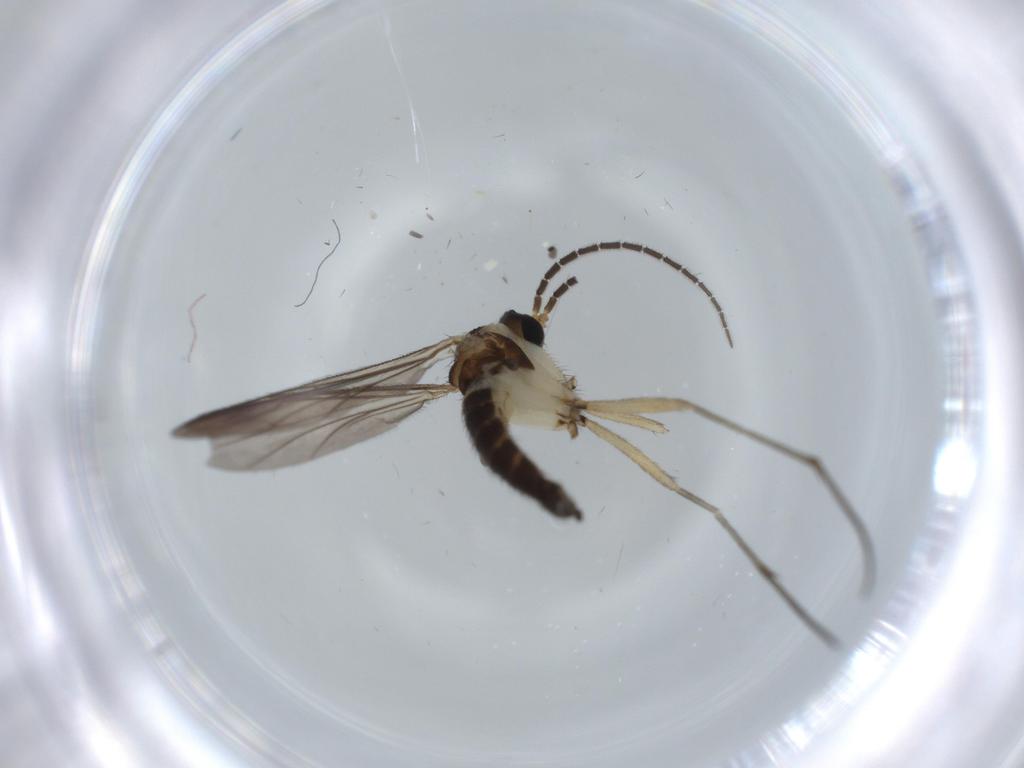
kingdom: Animalia
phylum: Arthropoda
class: Insecta
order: Diptera
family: Sciaridae
